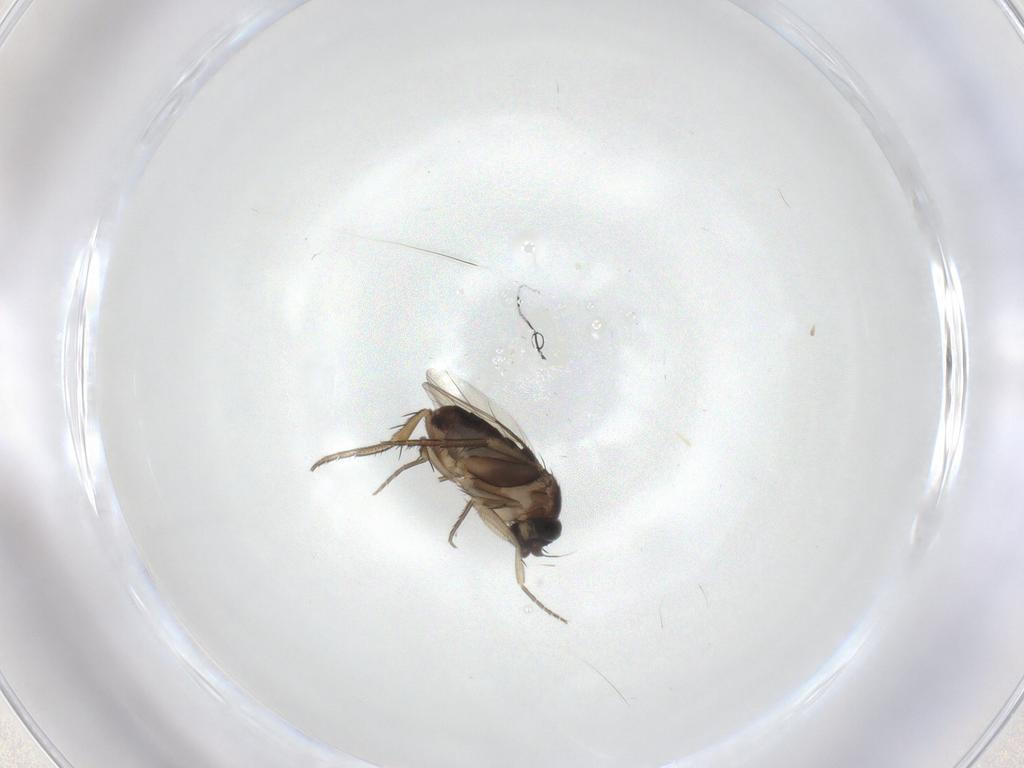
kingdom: Animalia
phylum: Arthropoda
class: Insecta
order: Diptera
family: Phoridae
